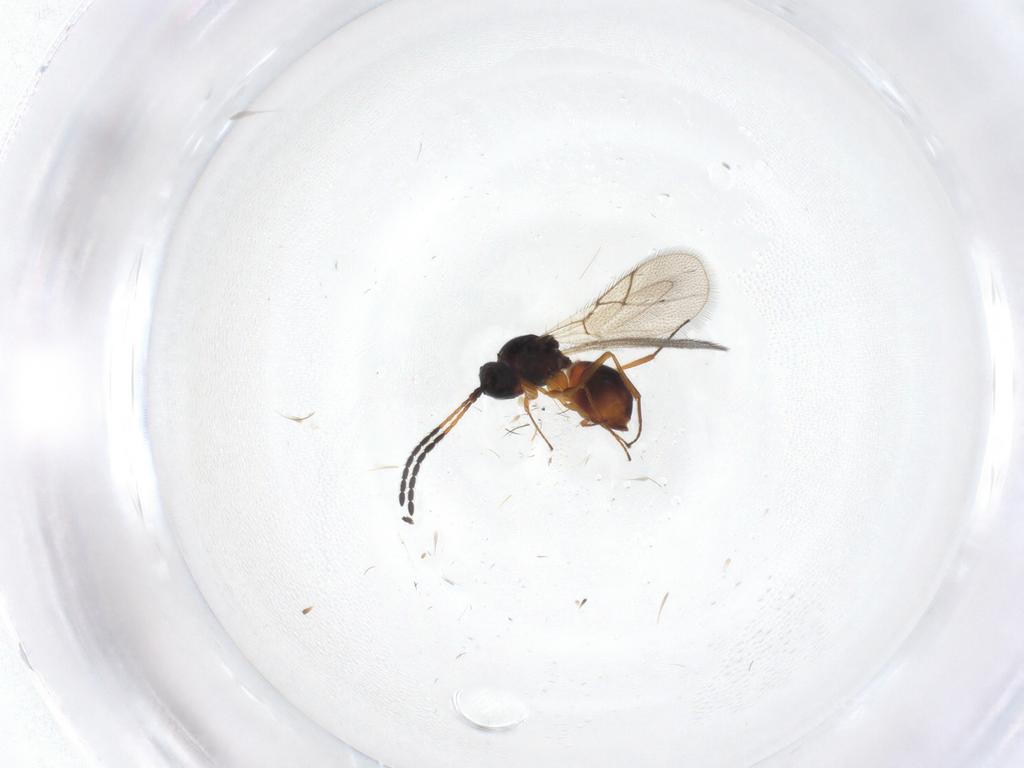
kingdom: Animalia
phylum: Arthropoda
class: Insecta
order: Hymenoptera
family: Figitidae
